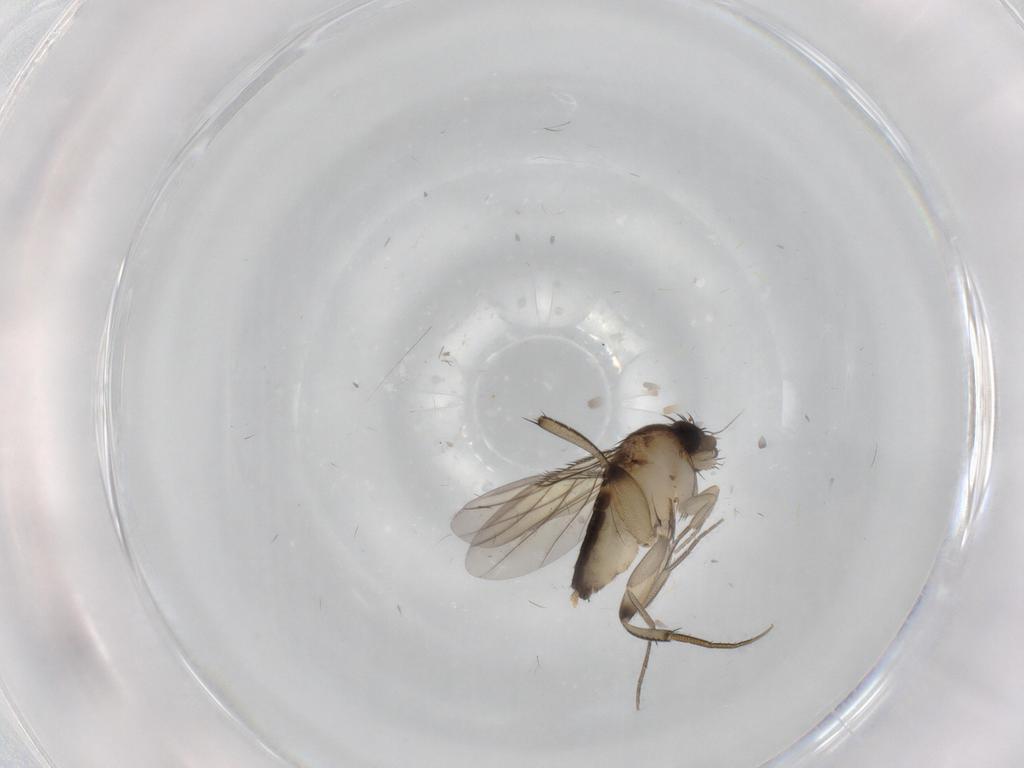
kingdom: Animalia
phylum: Arthropoda
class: Insecta
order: Diptera
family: Phoridae
